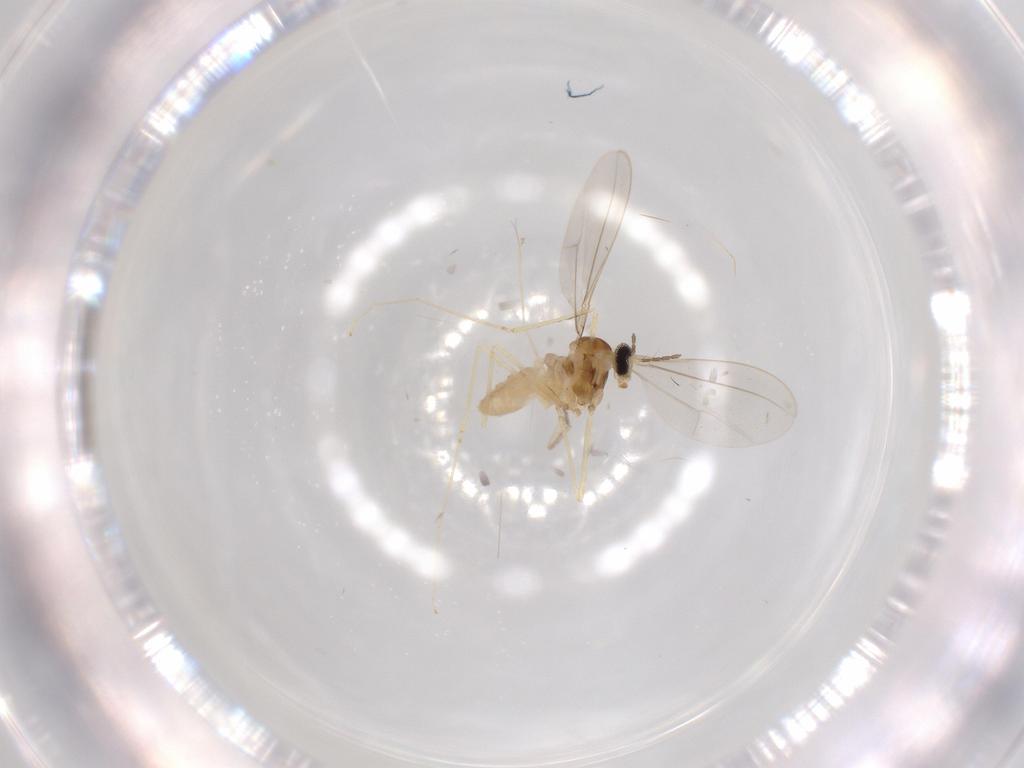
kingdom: Animalia
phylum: Arthropoda
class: Insecta
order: Diptera
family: Cecidomyiidae
